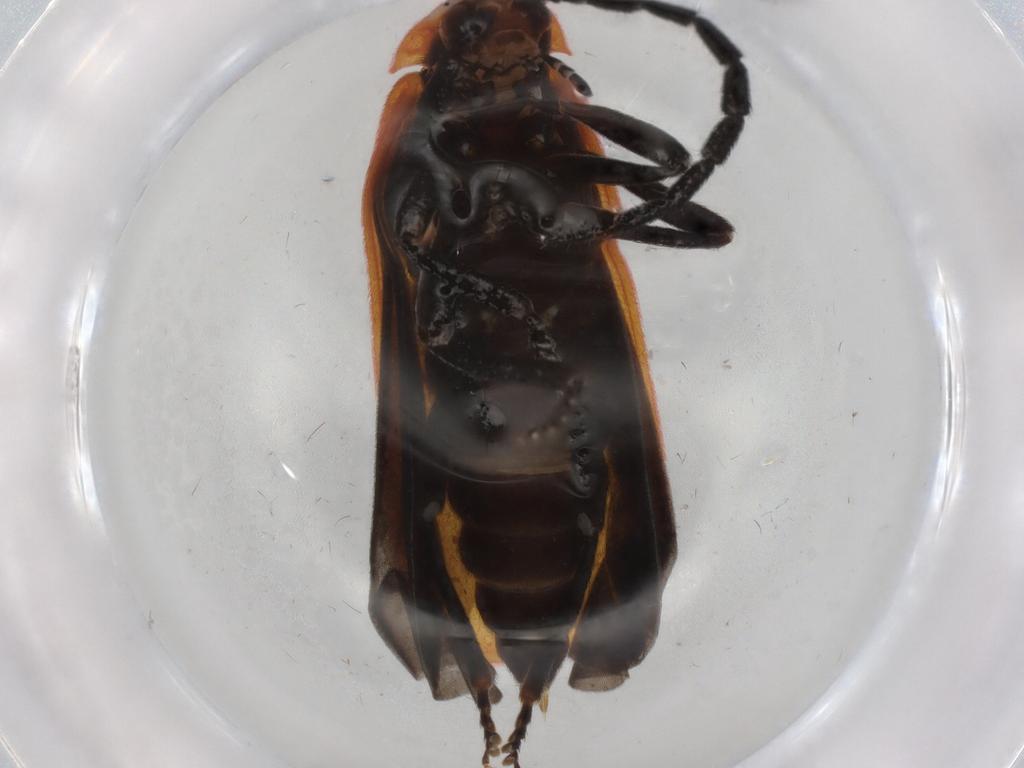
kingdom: Animalia
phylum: Arthropoda
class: Insecta
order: Coleoptera
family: Lycidae
